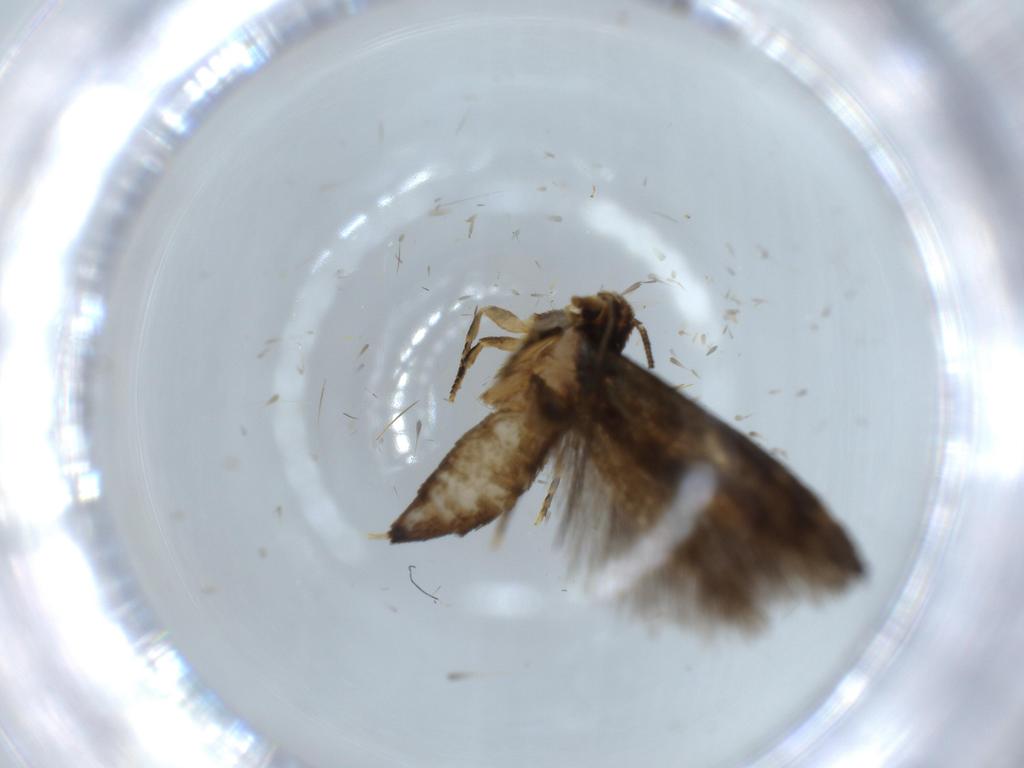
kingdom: Animalia
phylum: Arthropoda
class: Insecta
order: Lepidoptera
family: Tineidae
